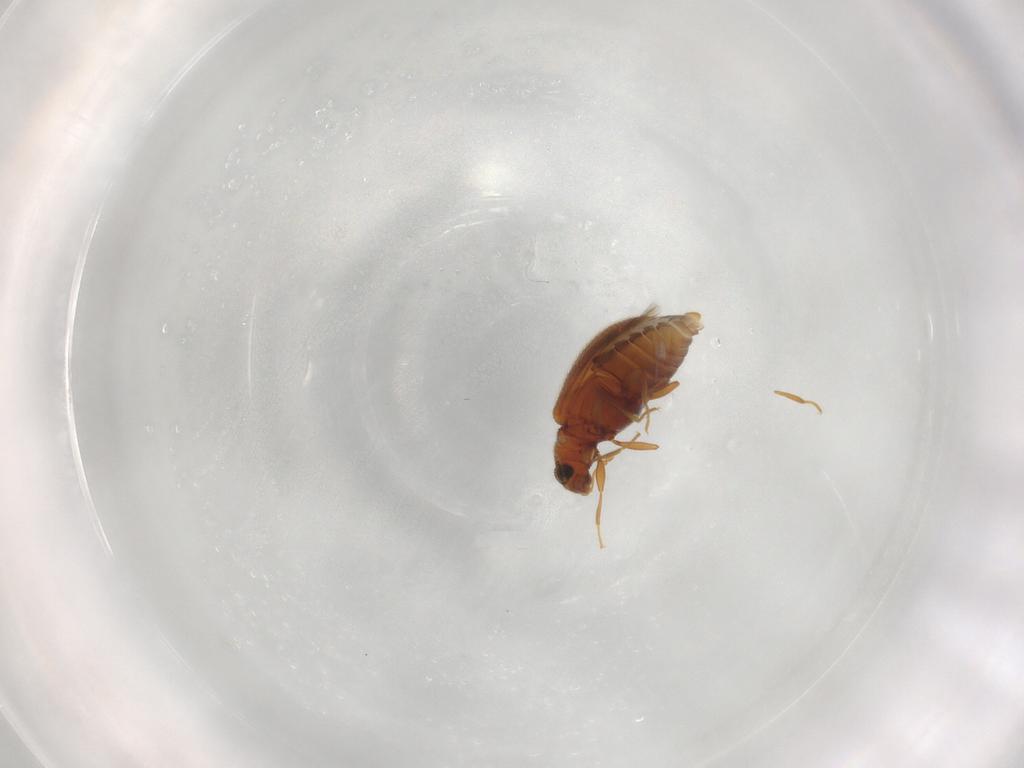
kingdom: Animalia
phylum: Arthropoda
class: Insecta
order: Coleoptera
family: Latridiidae
